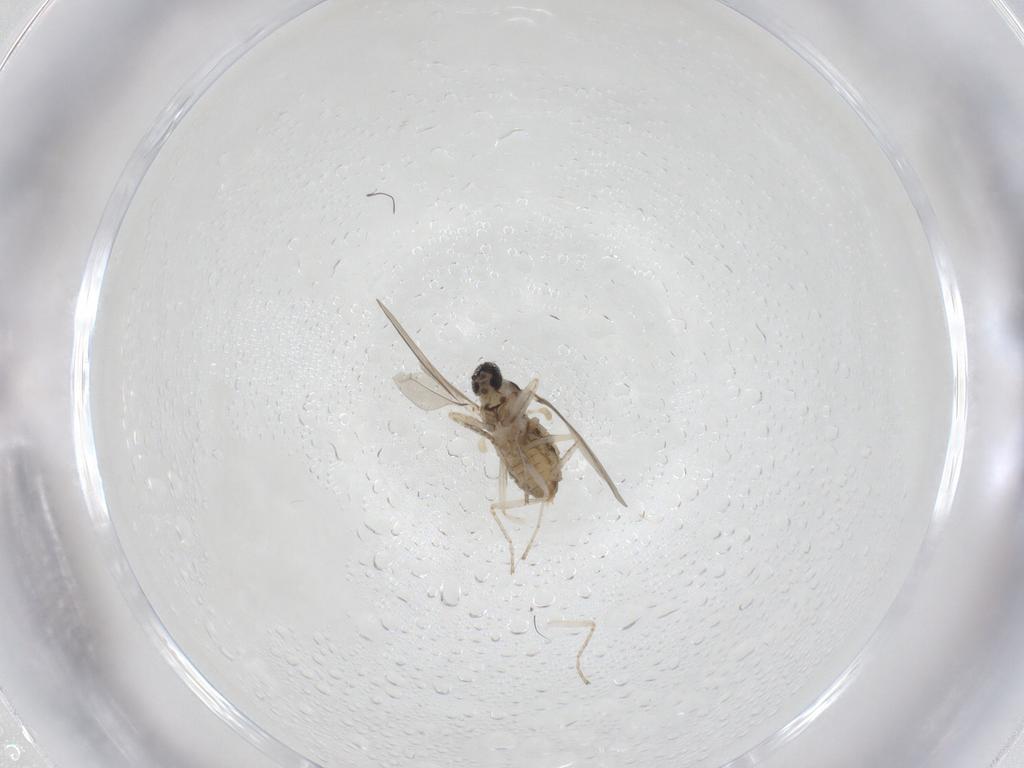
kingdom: Animalia
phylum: Arthropoda
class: Insecta
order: Diptera
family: Cecidomyiidae
